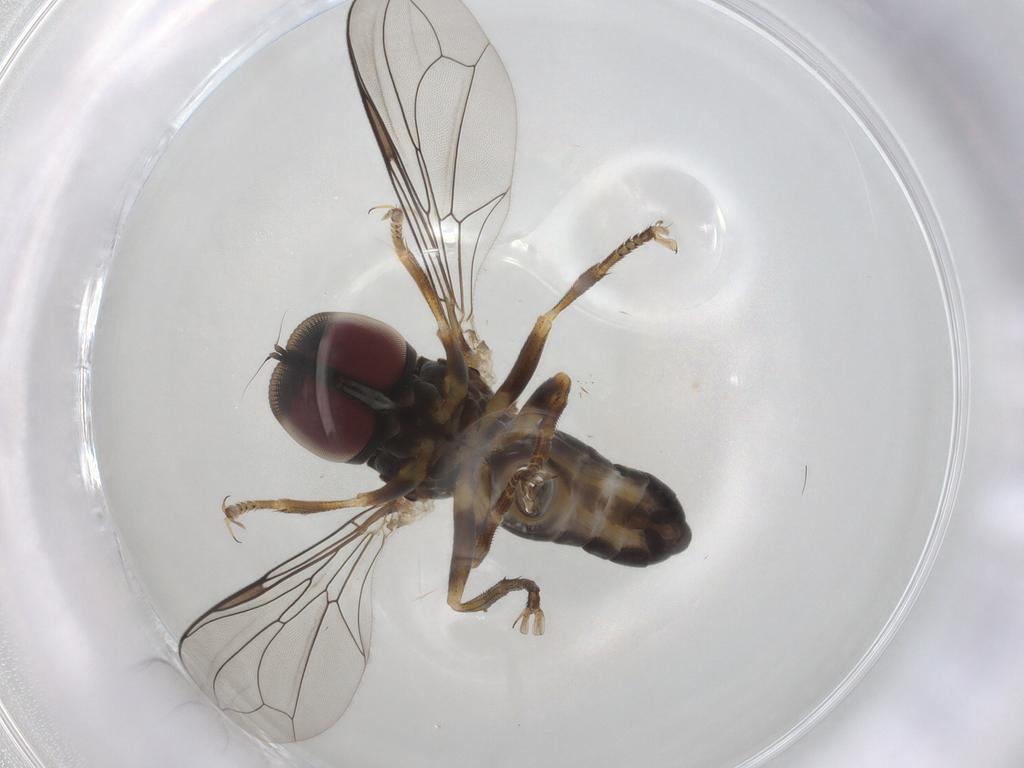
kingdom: Animalia
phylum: Arthropoda
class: Insecta
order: Diptera
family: Pipunculidae
